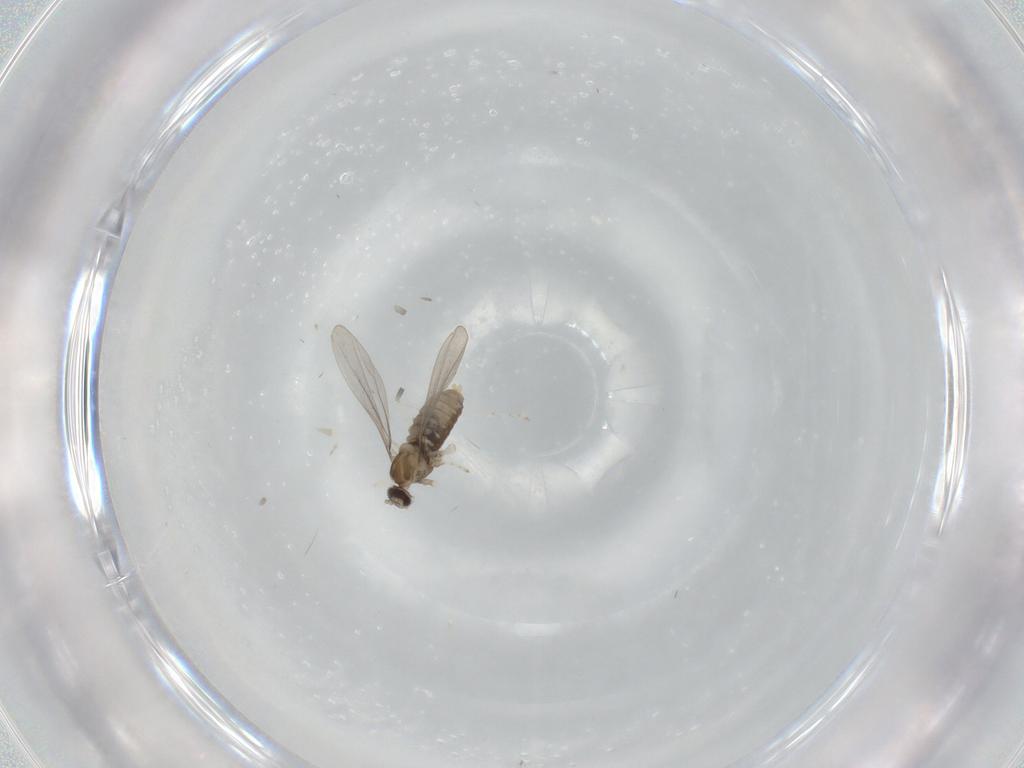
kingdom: Animalia
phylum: Arthropoda
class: Insecta
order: Diptera
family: Cecidomyiidae
